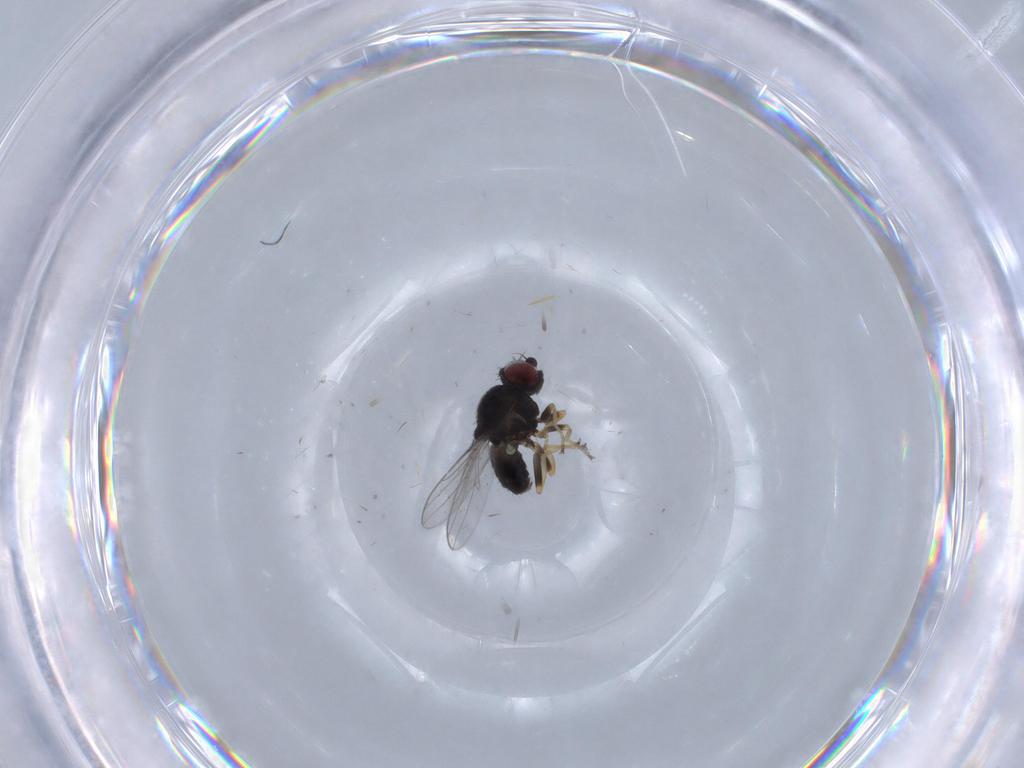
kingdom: Animalia
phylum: Arthropoda
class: Insecta
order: Diptera
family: Chloropidae
